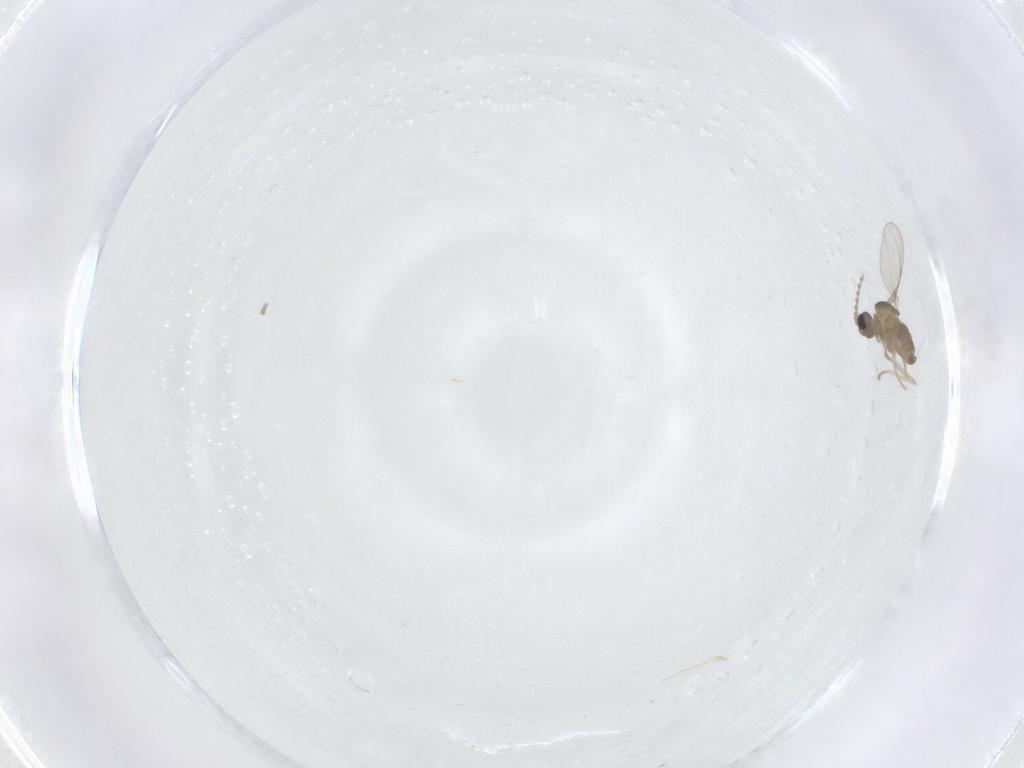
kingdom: Animalia
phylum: Arthropoda
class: Insecta
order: Diptera
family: Cecidomyiidae
